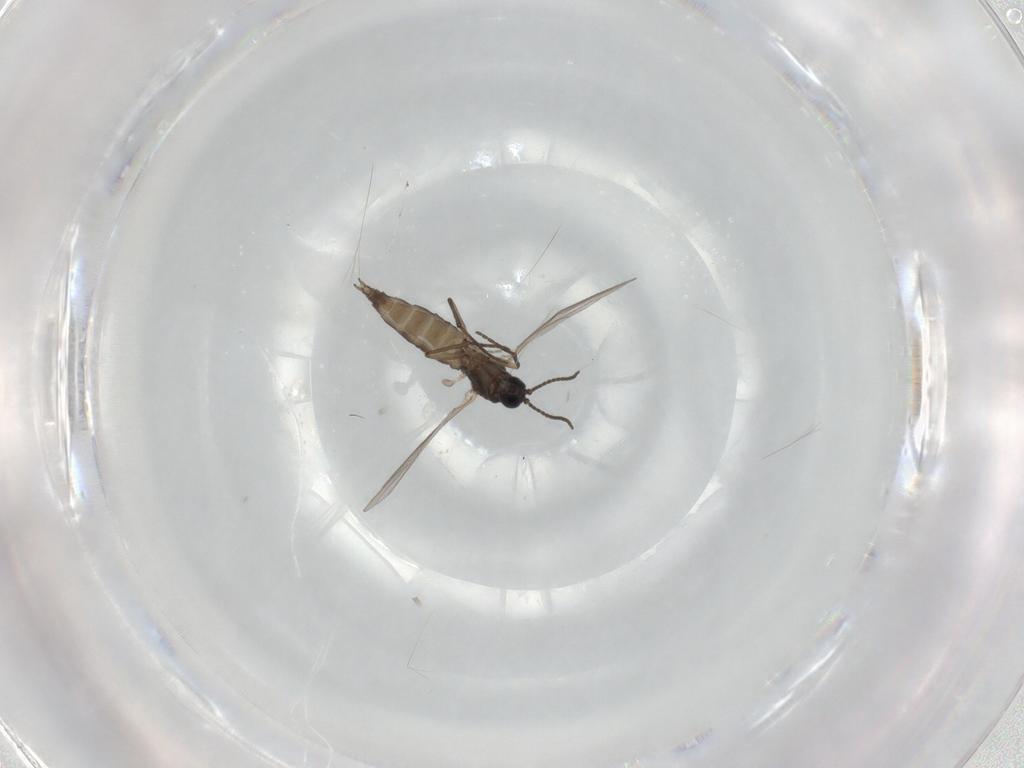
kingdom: Animalia
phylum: Arthropoda
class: Insecta
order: Diptera
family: Sciaridae
